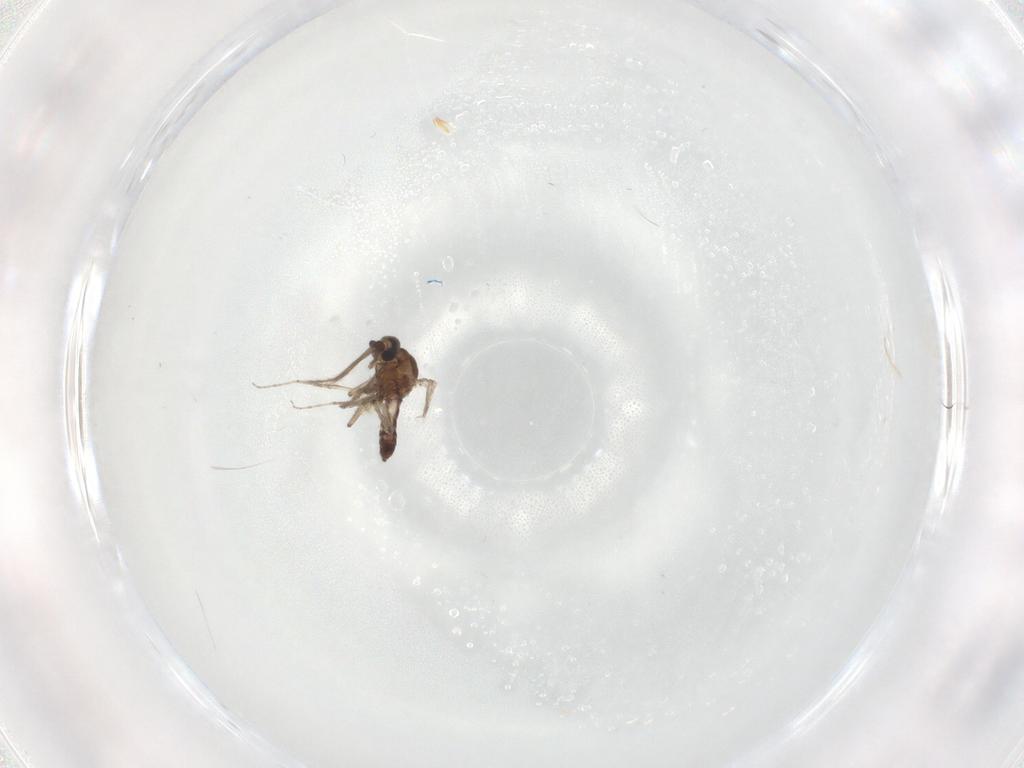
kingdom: Animalia
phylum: Arthropoda
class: Insecta
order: Diptera
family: Ceratopogonidae
